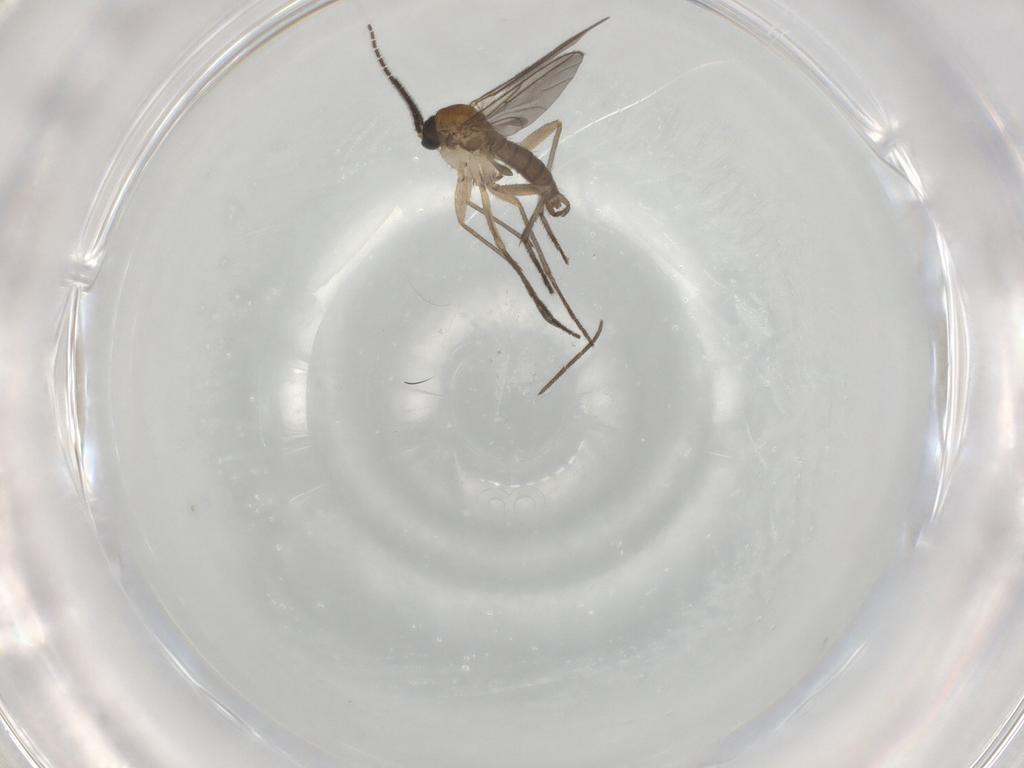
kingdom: Animalia
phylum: Arthropoda
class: Insecta
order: Diptera
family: Sciaridae
